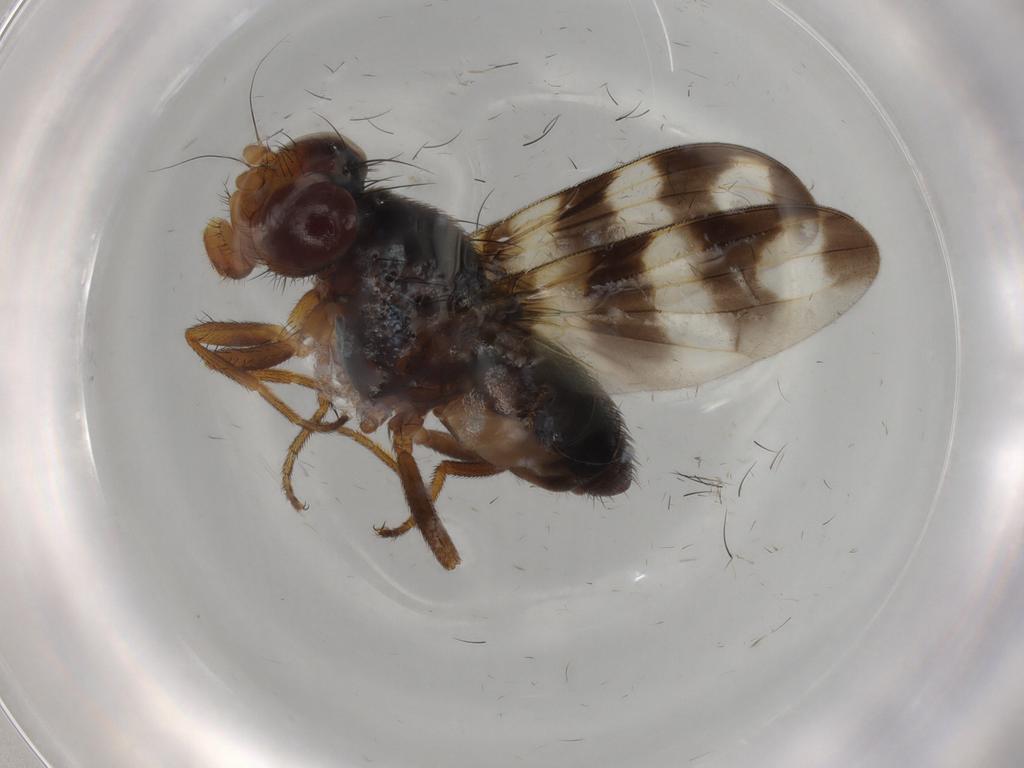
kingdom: Animalia
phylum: Arthropoda
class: Insecta
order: Diptera
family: Ulidiidae
